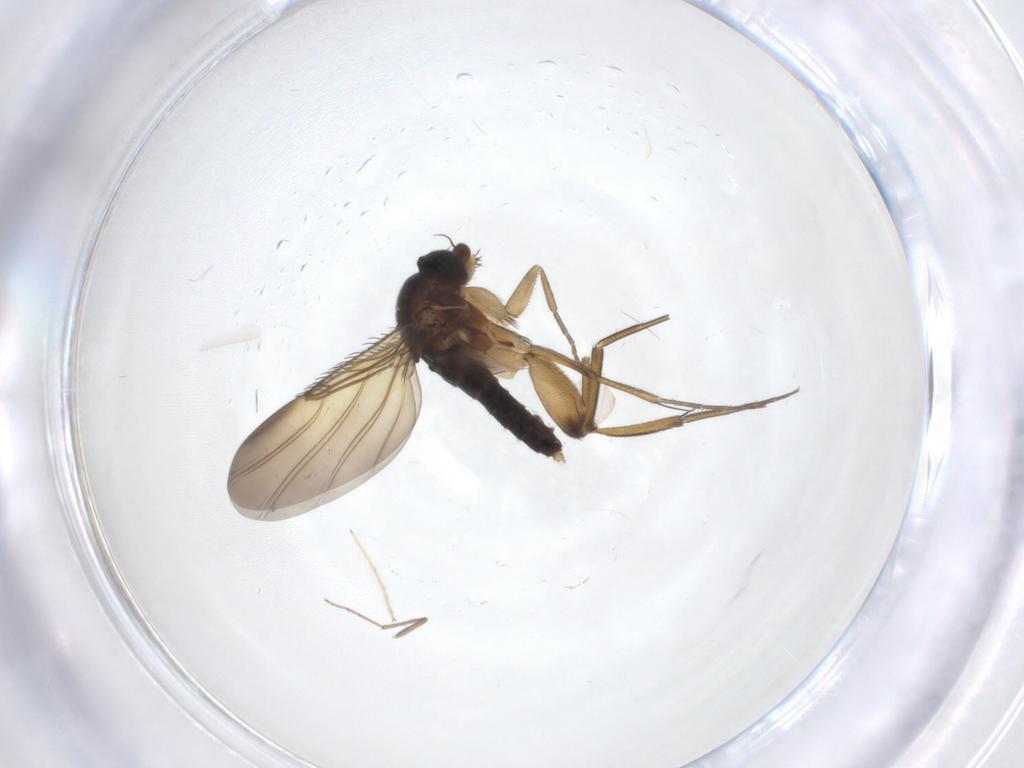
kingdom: Animalia
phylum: Arthropoda
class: Insecta
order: Diptera
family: Chironomidae
